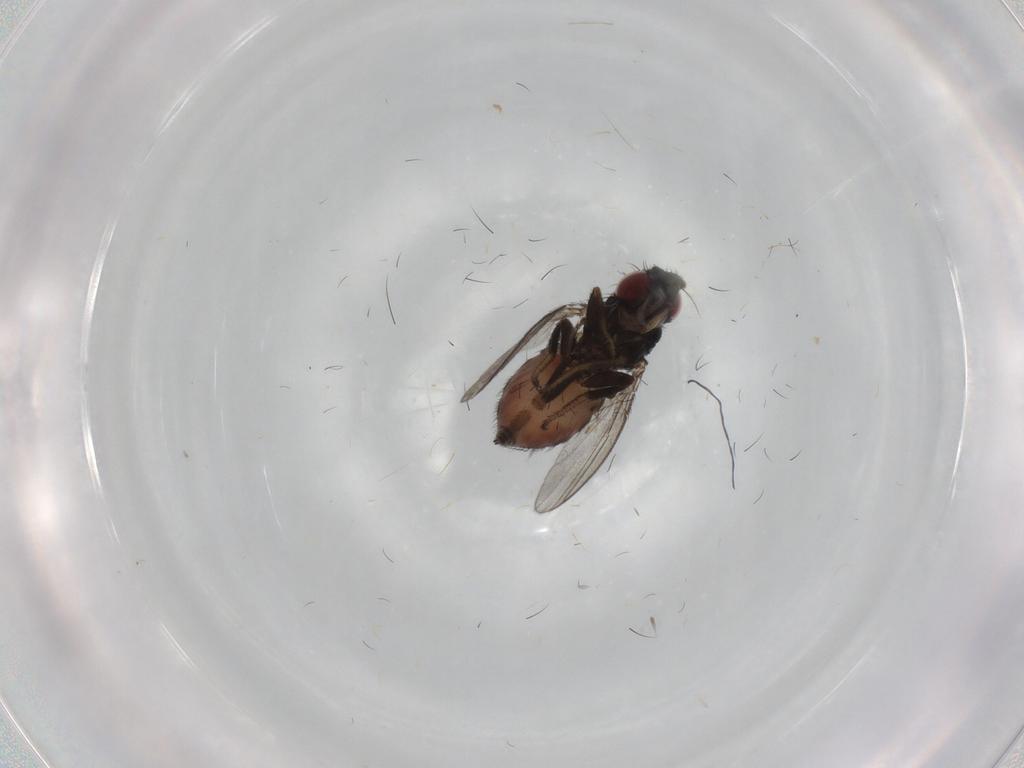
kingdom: Animalia
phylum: Arthropoda
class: Insecta
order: Diptera
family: Milichiidae
